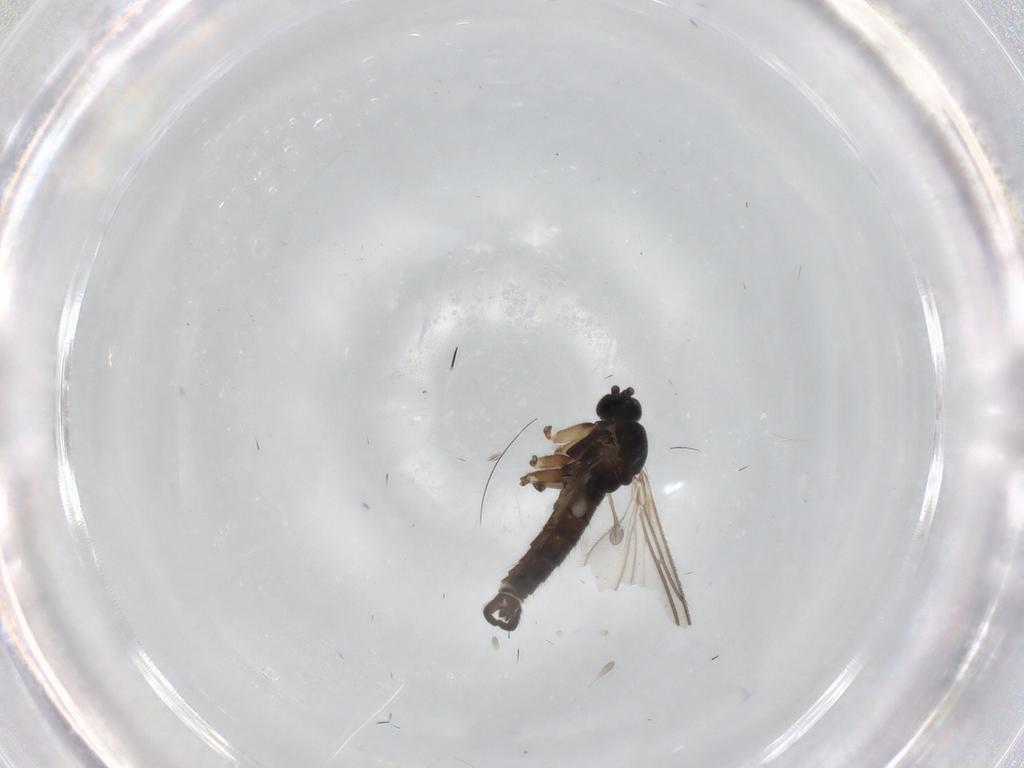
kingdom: Animalia
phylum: Arthropoda
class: Insecta
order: Diptera
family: Sciaridae
